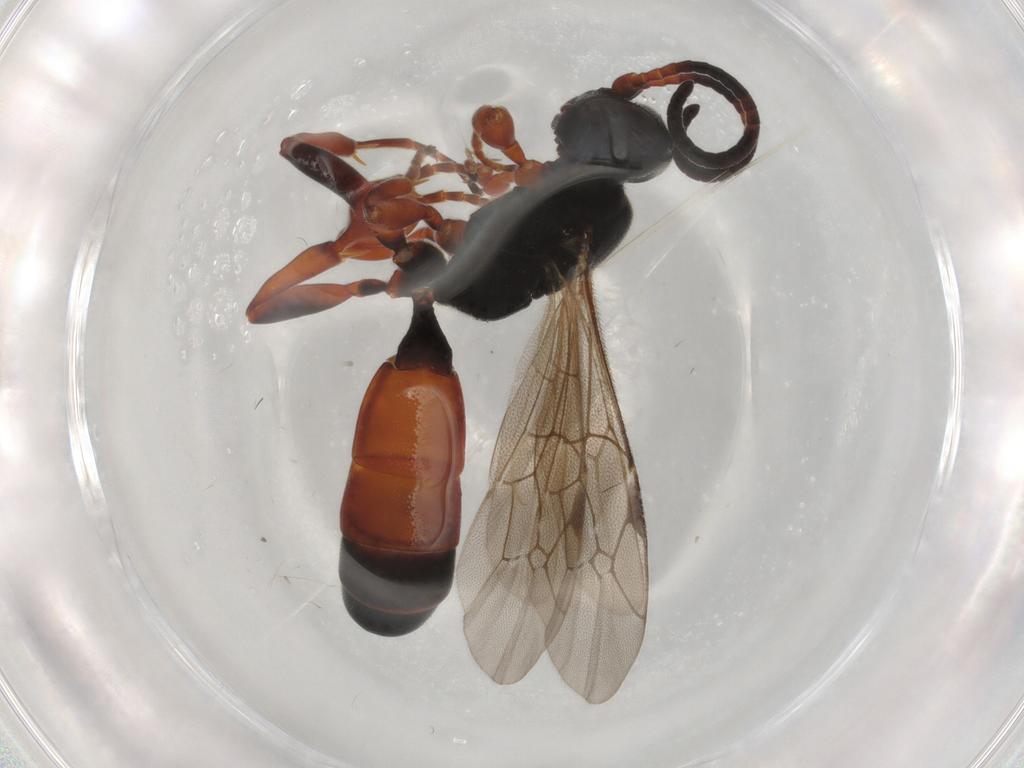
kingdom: Animalia
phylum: Arthropoda
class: Insecta
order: Hymenoptera
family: Ichneumonidae
